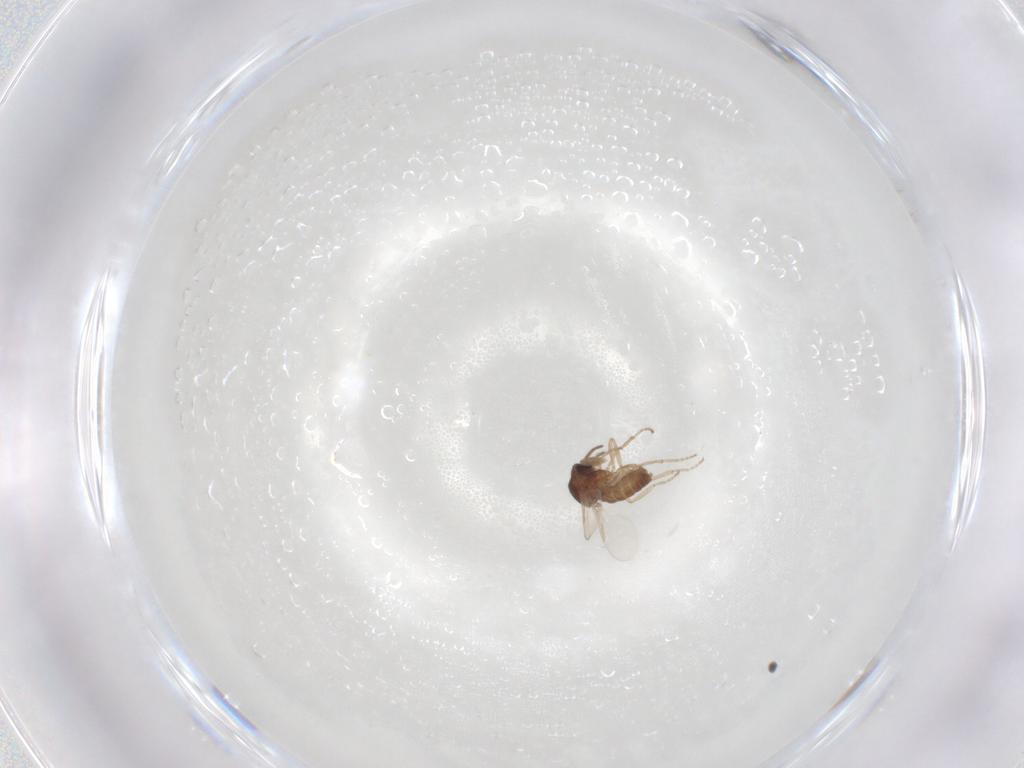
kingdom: Animalia
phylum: Arthropoda
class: Insecta
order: Diptera
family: Ceratopogonidae
